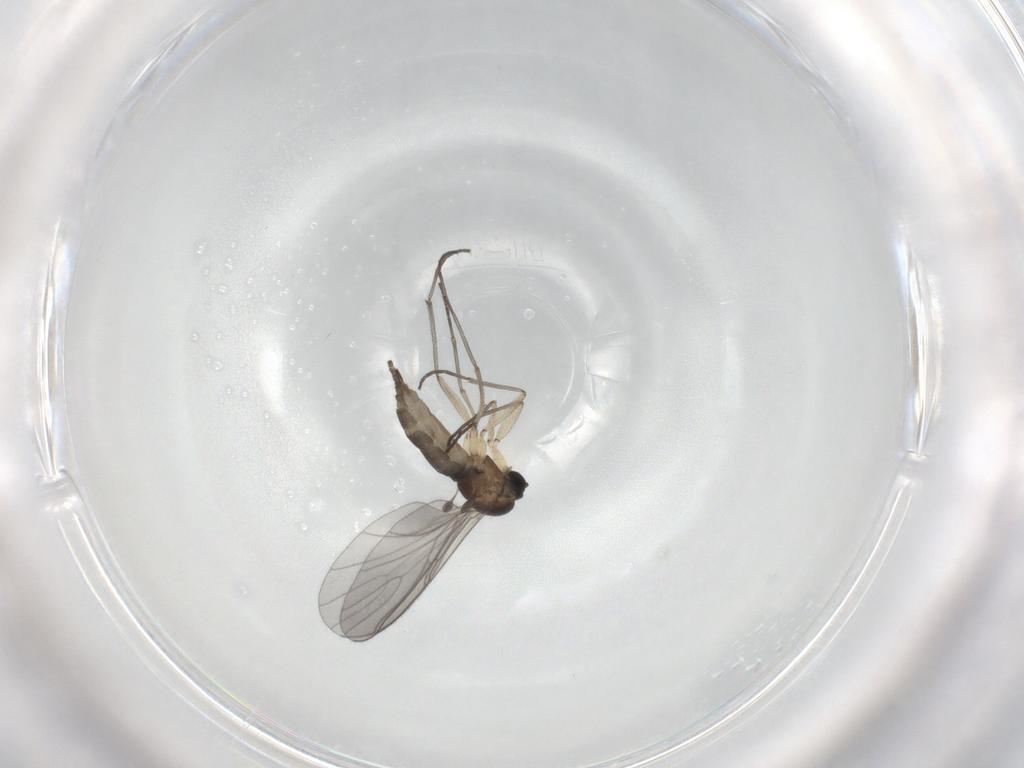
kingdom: Animalia
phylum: Arthropoda
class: Insecta
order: Diptera
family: Sciaridae
